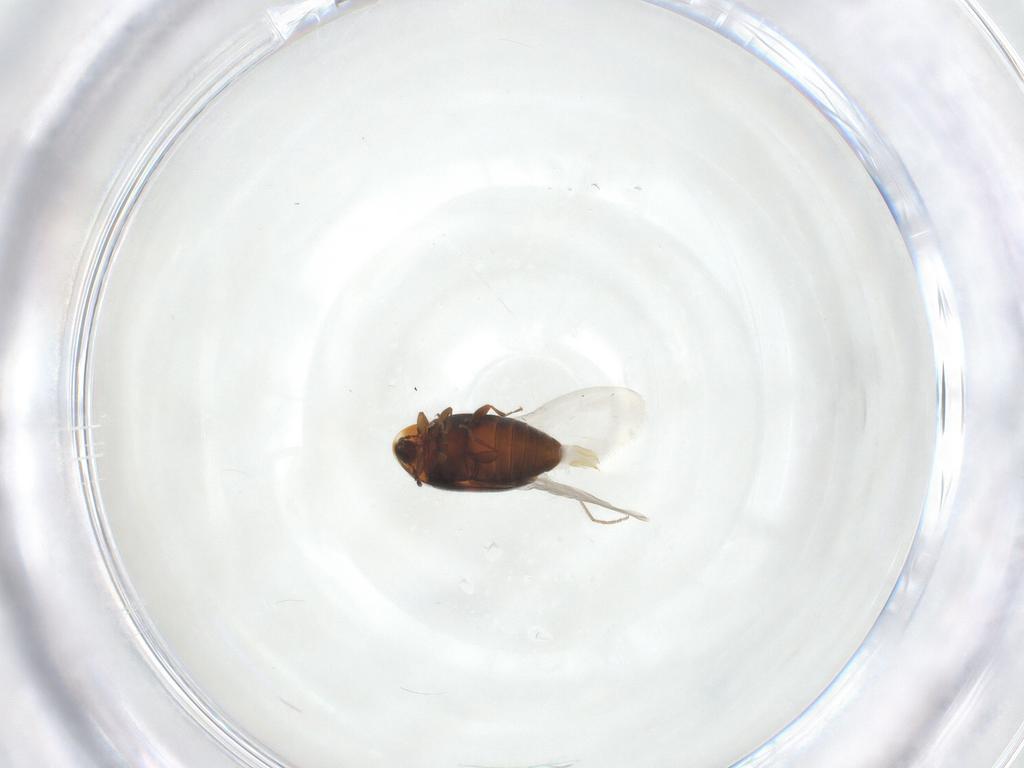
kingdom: Animalia
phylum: Arthropoda
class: Insecta
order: Coleoptera
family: Corylophidae
